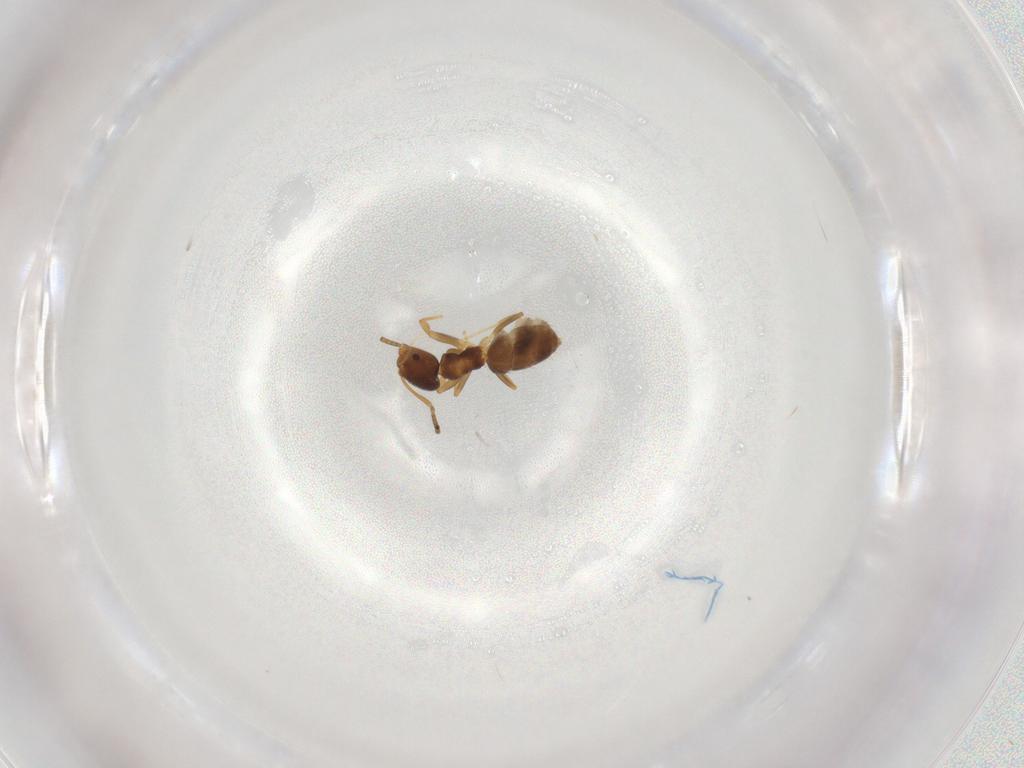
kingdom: Animalia
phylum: Arthropoda
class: Insecta
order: Hymenoptera
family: Formicidae
